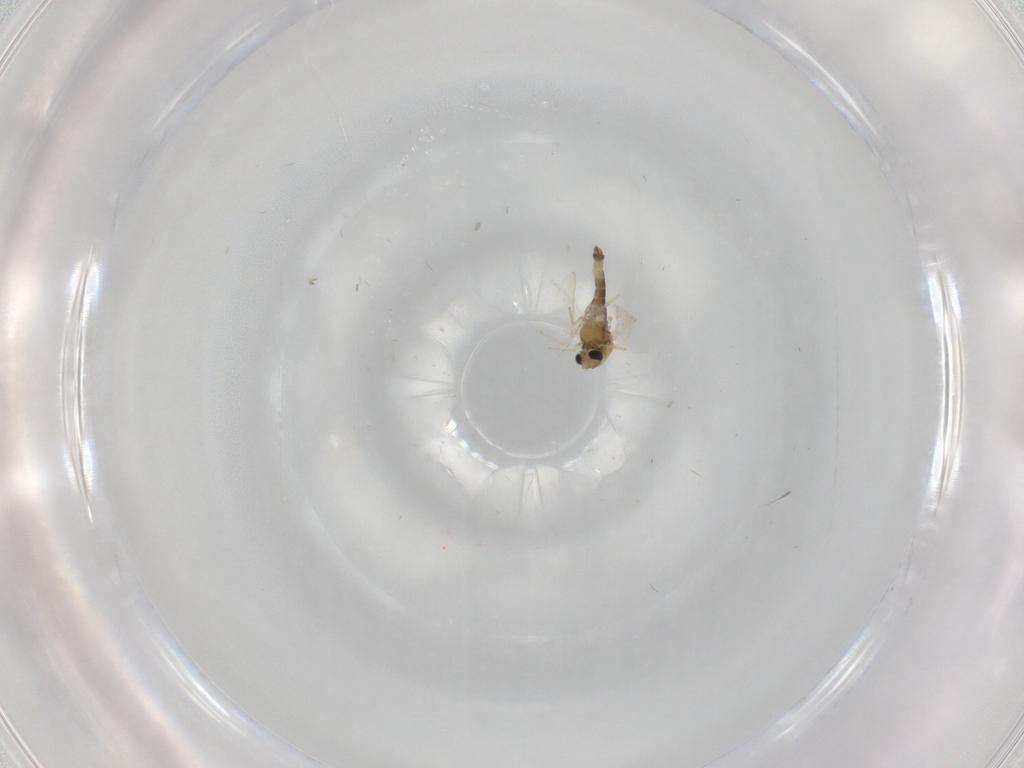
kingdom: Animalia
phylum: Arthropoda
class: Insecta
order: Diptera
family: Chironomidae
